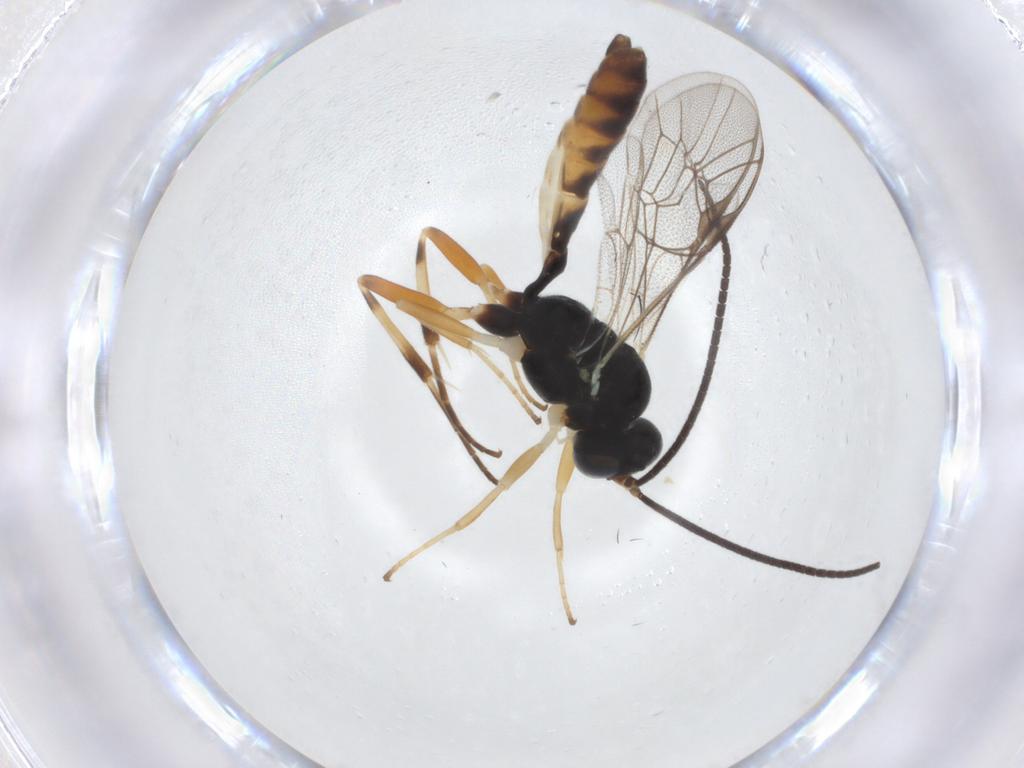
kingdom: Animalia
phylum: Arthropoda
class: Insecta
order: Hymenoptera
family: Ichneumonidae
